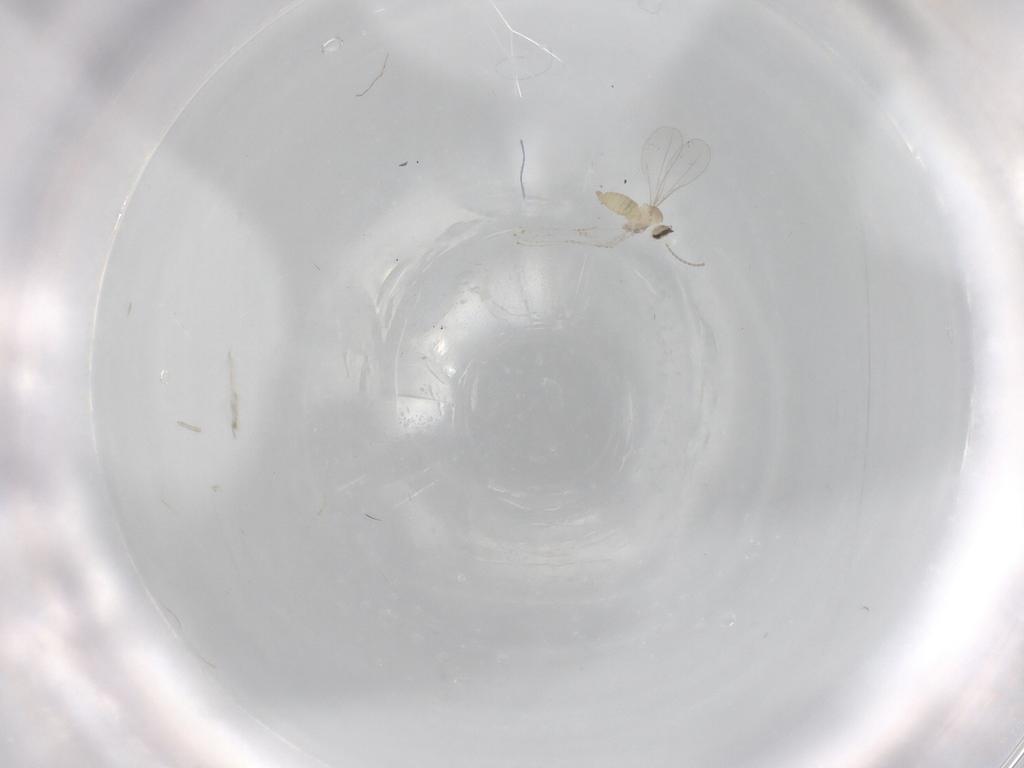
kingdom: Animalia
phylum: Arthropoda
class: Insecta
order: Diptera
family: Cecidomyiidae
